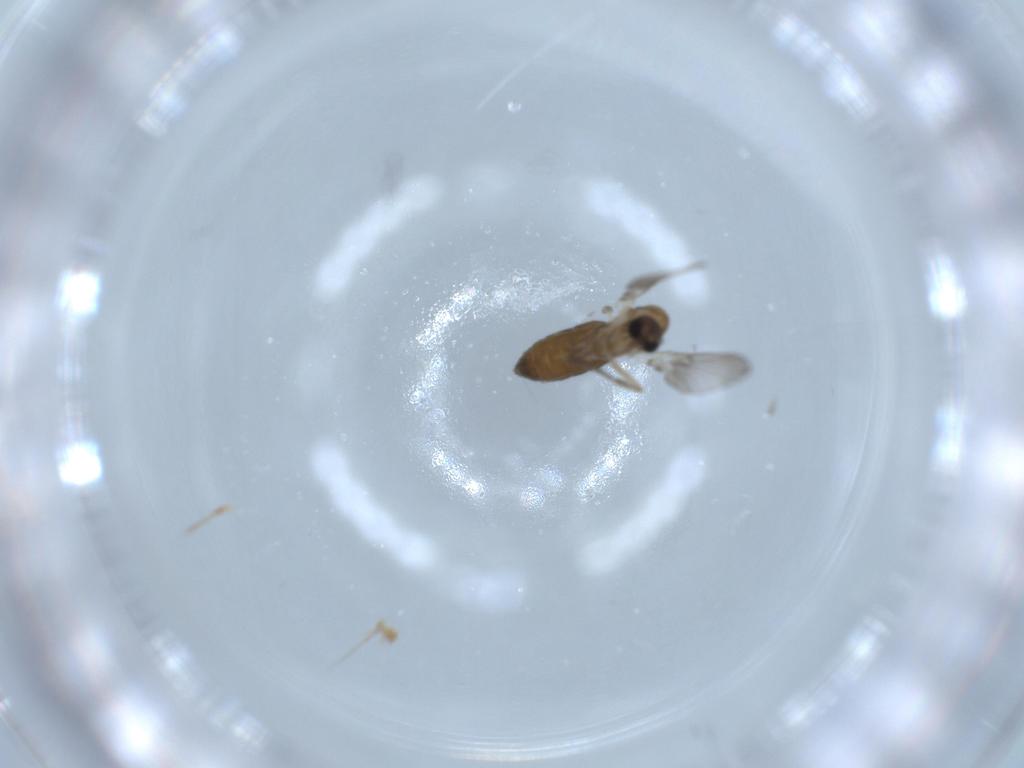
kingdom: Animalia
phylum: Arthropoda
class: Insecta
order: Diptera
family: Psychodidae
